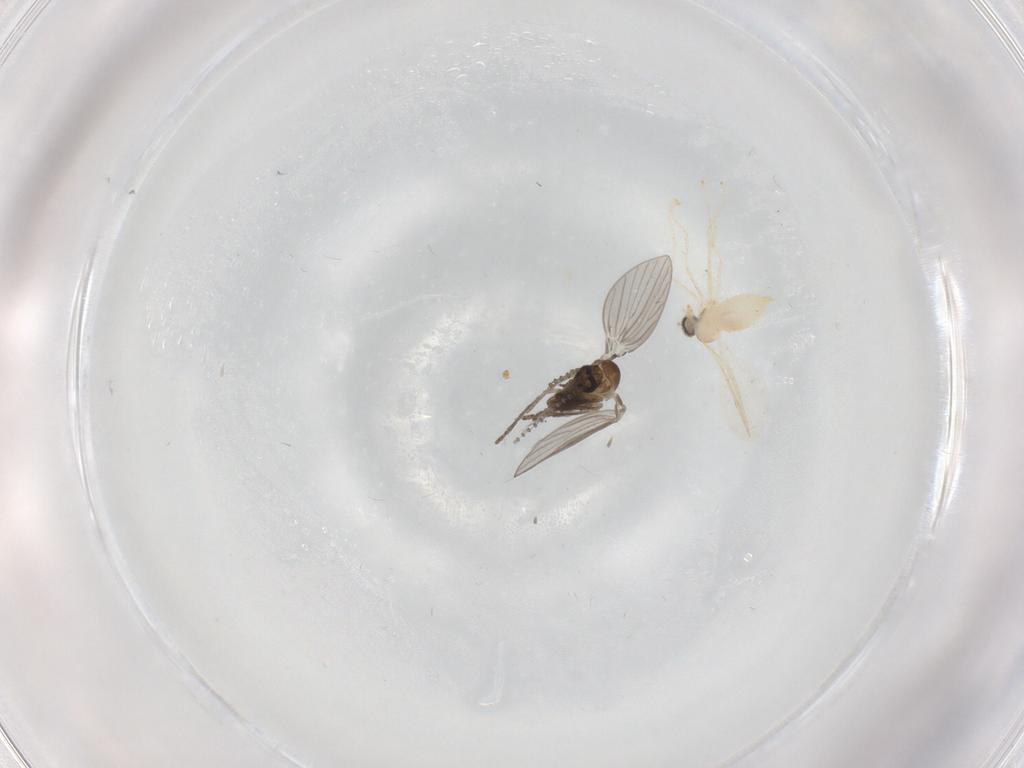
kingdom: Animalia
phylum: Arthropoda
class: Insecta
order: Diptera
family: Psychodidae
